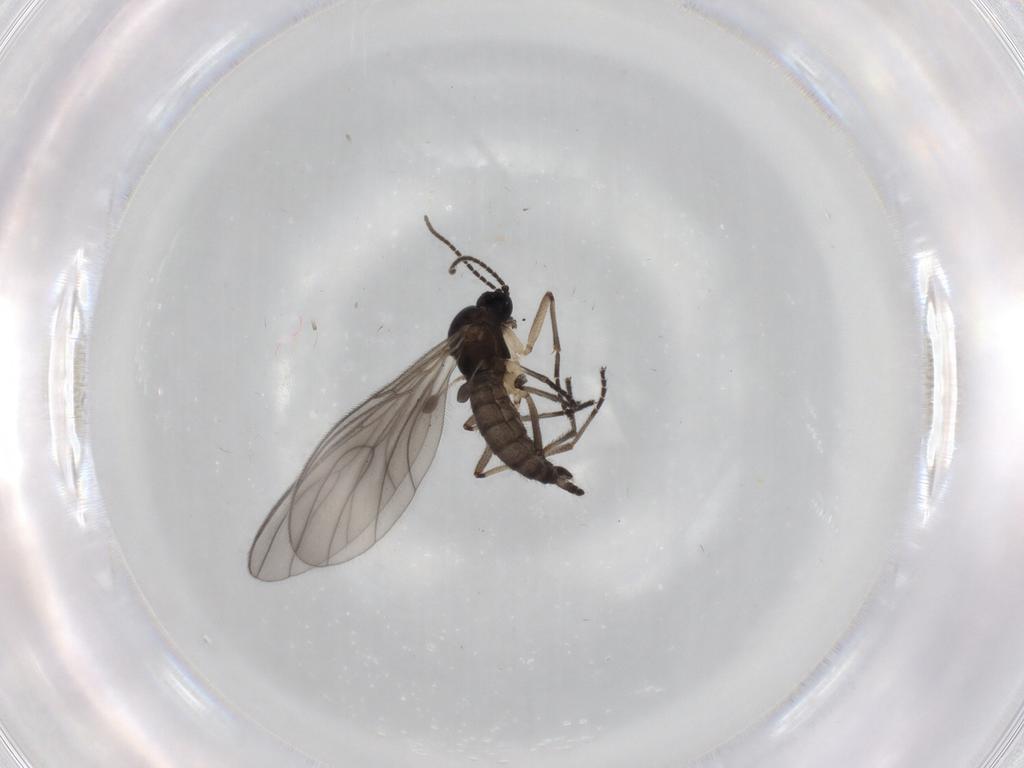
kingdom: Animalia
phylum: Arthropoda
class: Insecta
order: Diptera
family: Sciaridae
